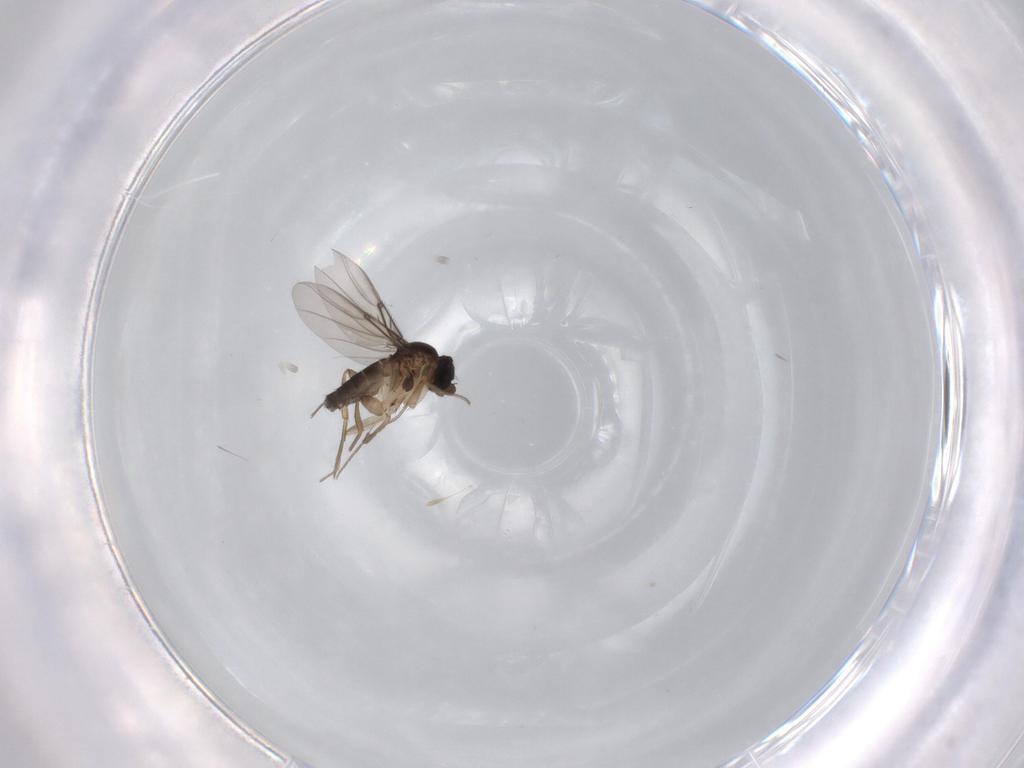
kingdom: Animalia
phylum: Arthropoda
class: Insecta
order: Diptera
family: Phoridae
